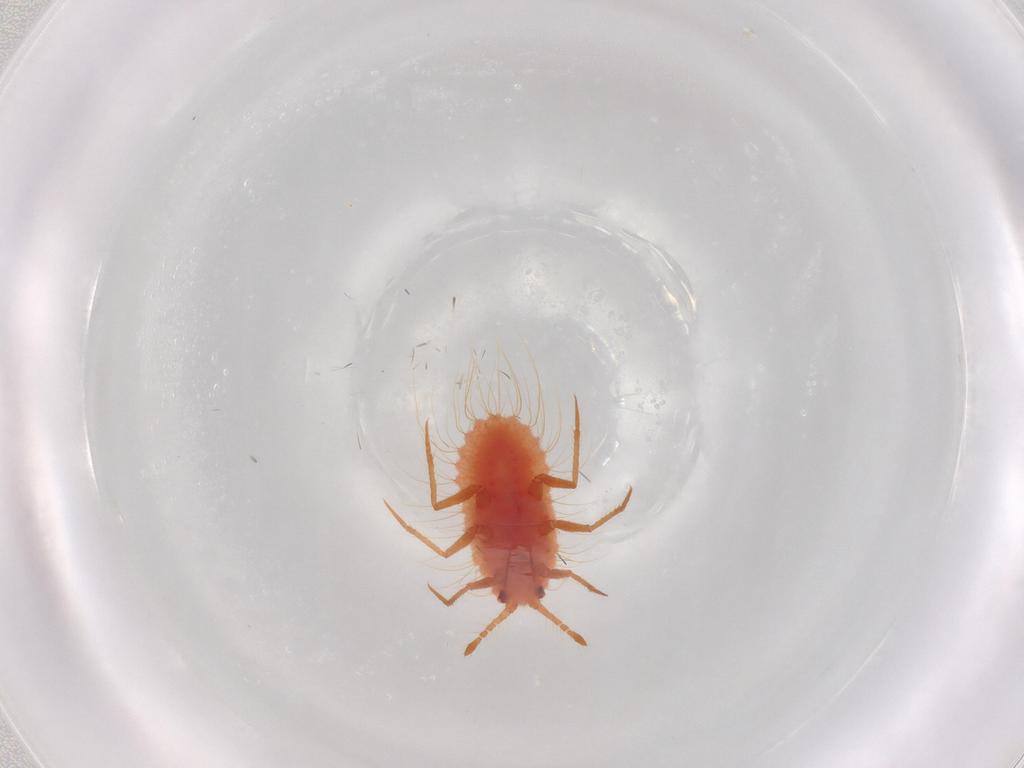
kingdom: Animalia
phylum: Arthropoda
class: Insecta
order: Hemiptera
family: Monophlebidae
